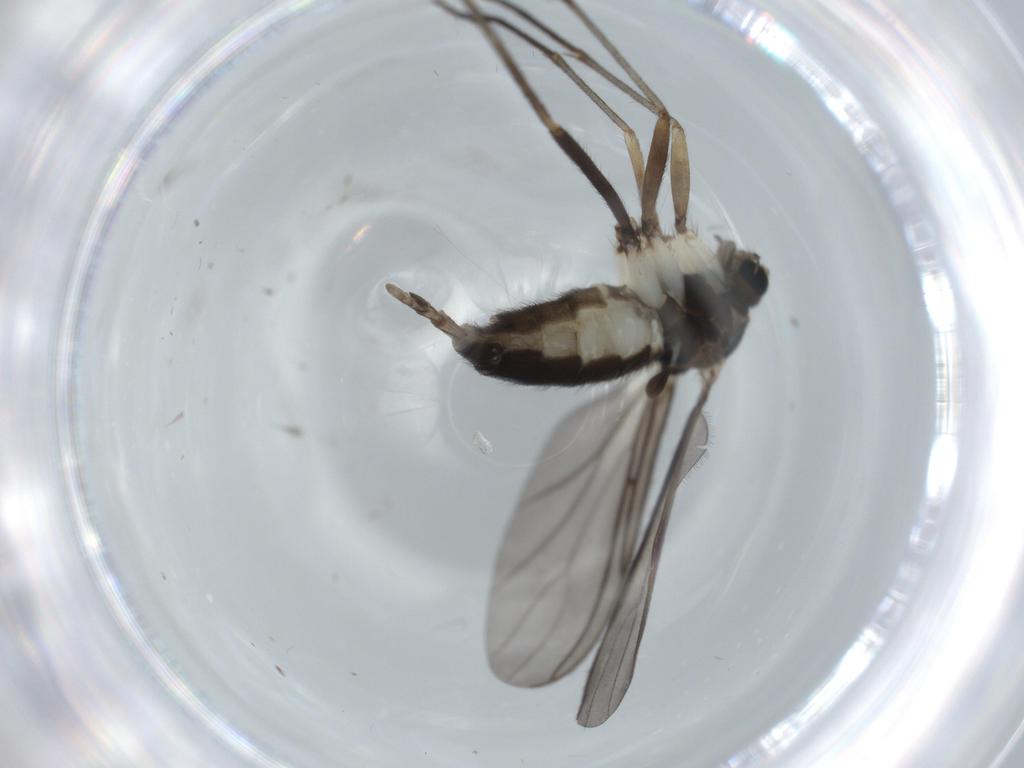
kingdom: Animalia
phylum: Arthropoda
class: Insecta
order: Diptera
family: Sciaridae
